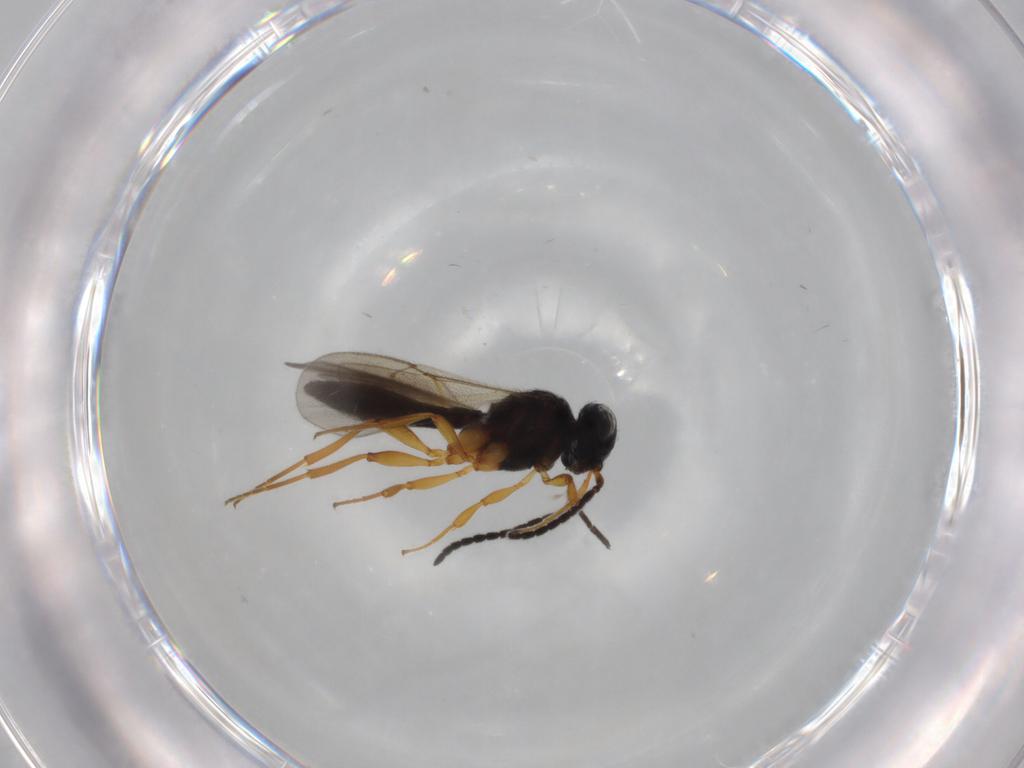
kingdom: Animalia
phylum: Arthropoda
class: Insecta
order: Hymenoptera
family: Scelionidae
